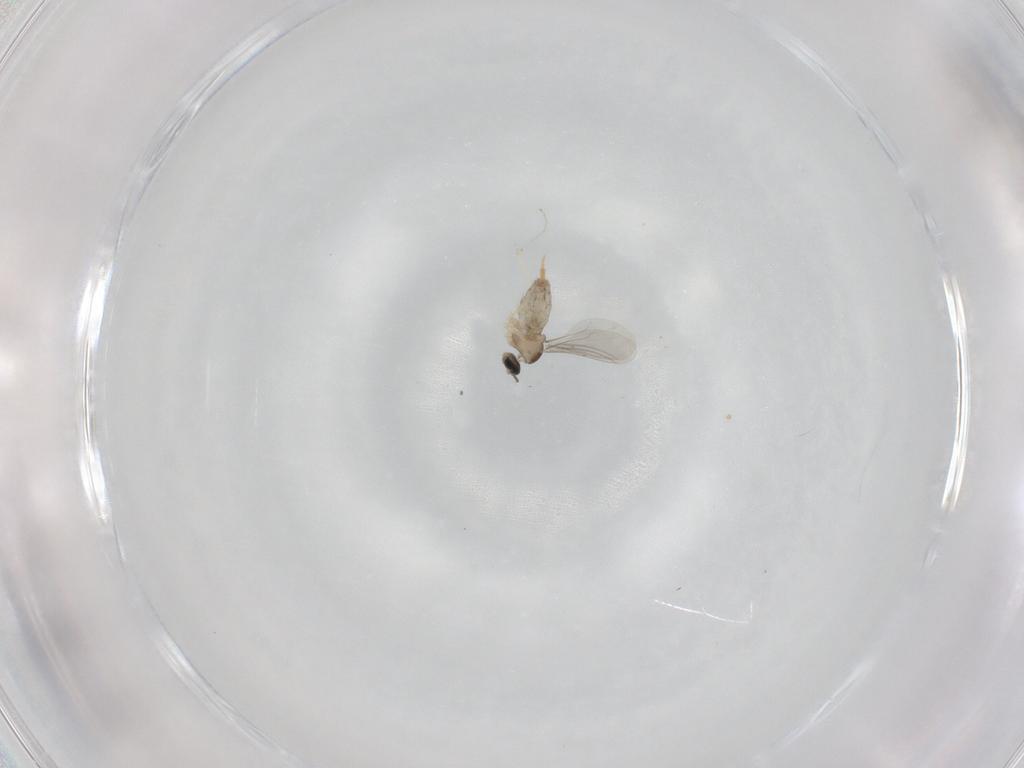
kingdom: Animalia
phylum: Arthropoda
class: Insecta
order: Diptera
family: Cecidomyiidae
